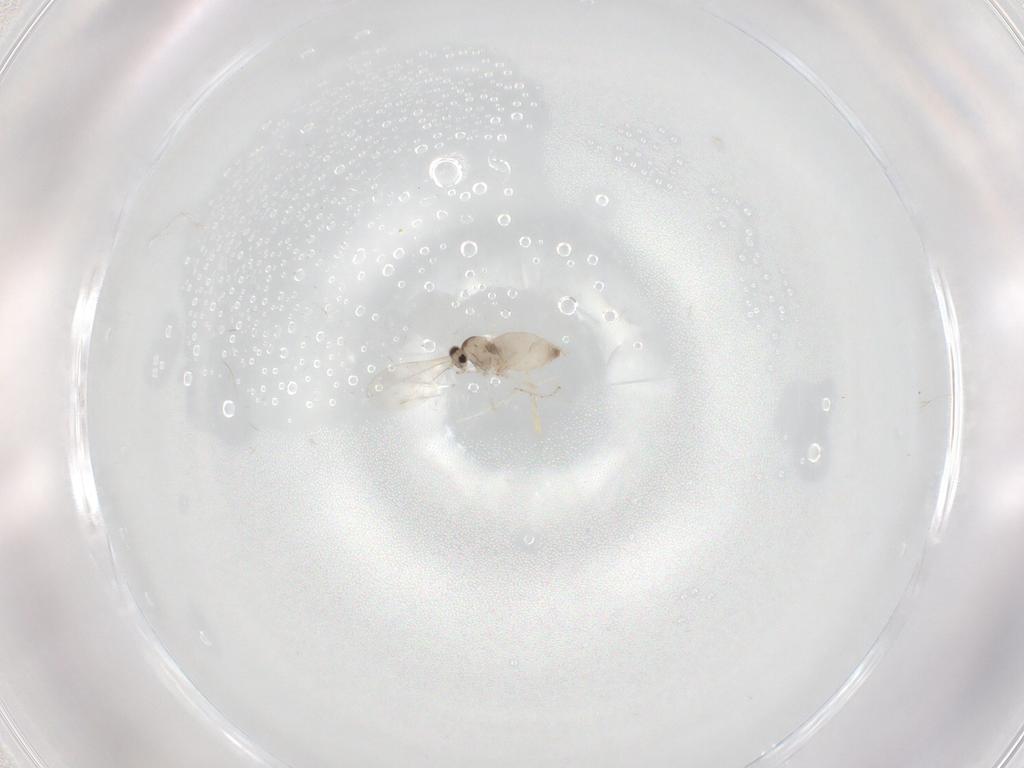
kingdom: Animalia
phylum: Arthropoda
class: Insecta
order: Diptera
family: Cecidomyiidae
